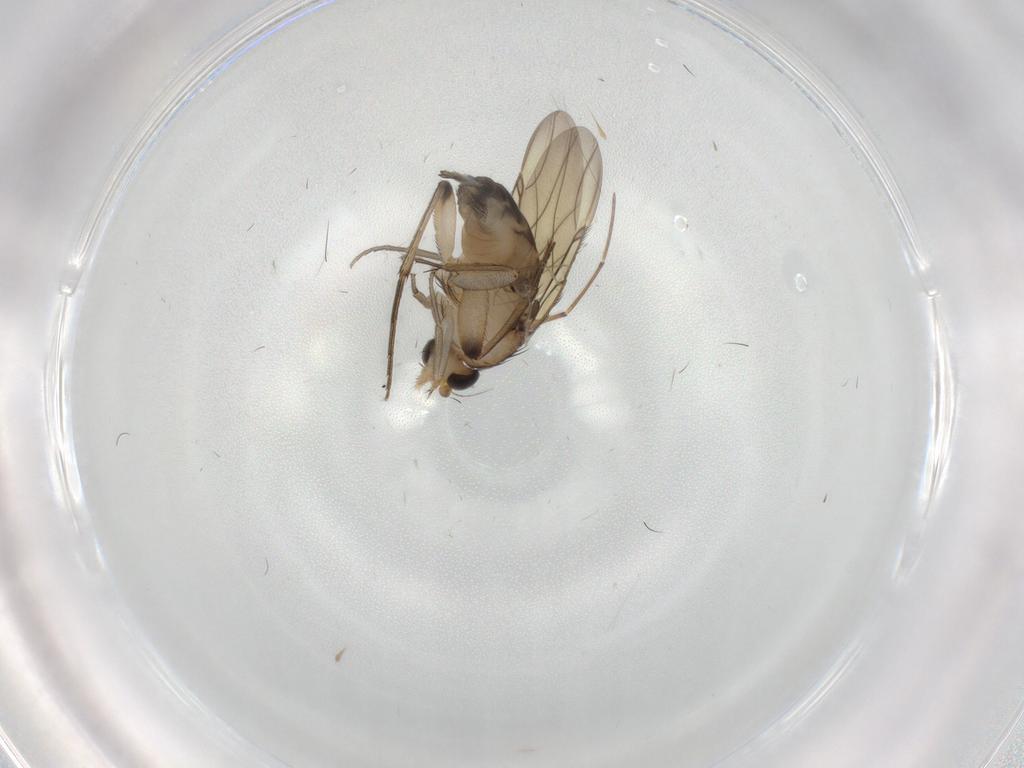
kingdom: Animalia
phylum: Arthropoda
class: Insecta
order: Diptera
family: Phoridae
